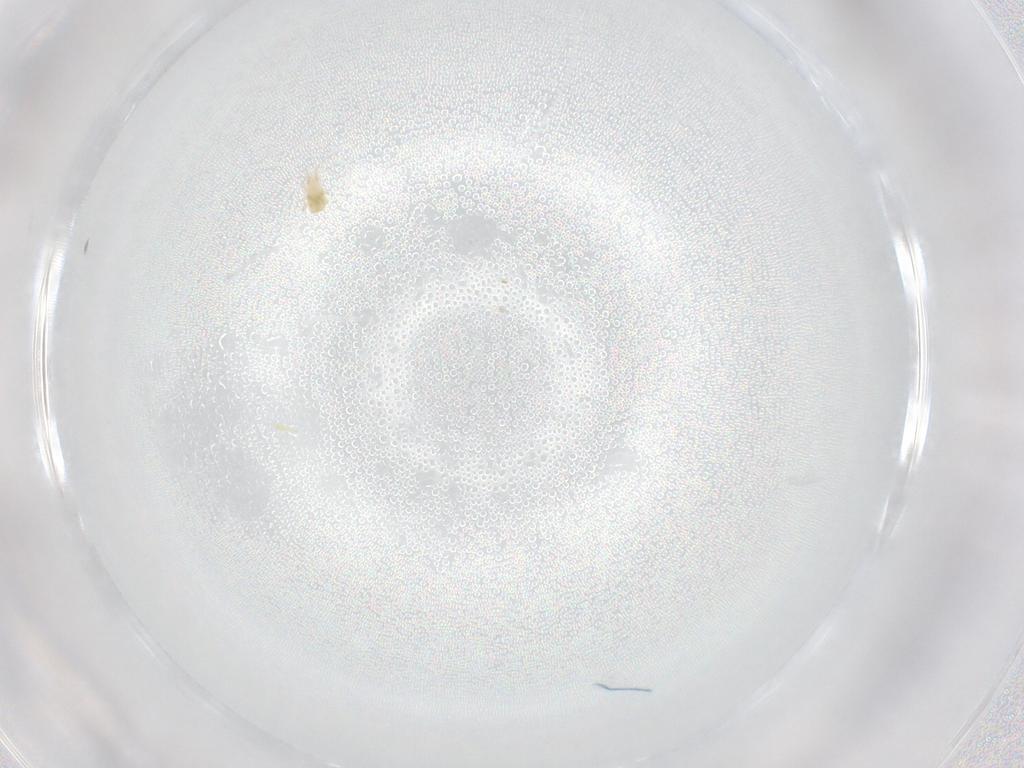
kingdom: Animalia
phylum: Arthropoda
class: Arachnida
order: Mesostigmata
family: Digamasellidae
